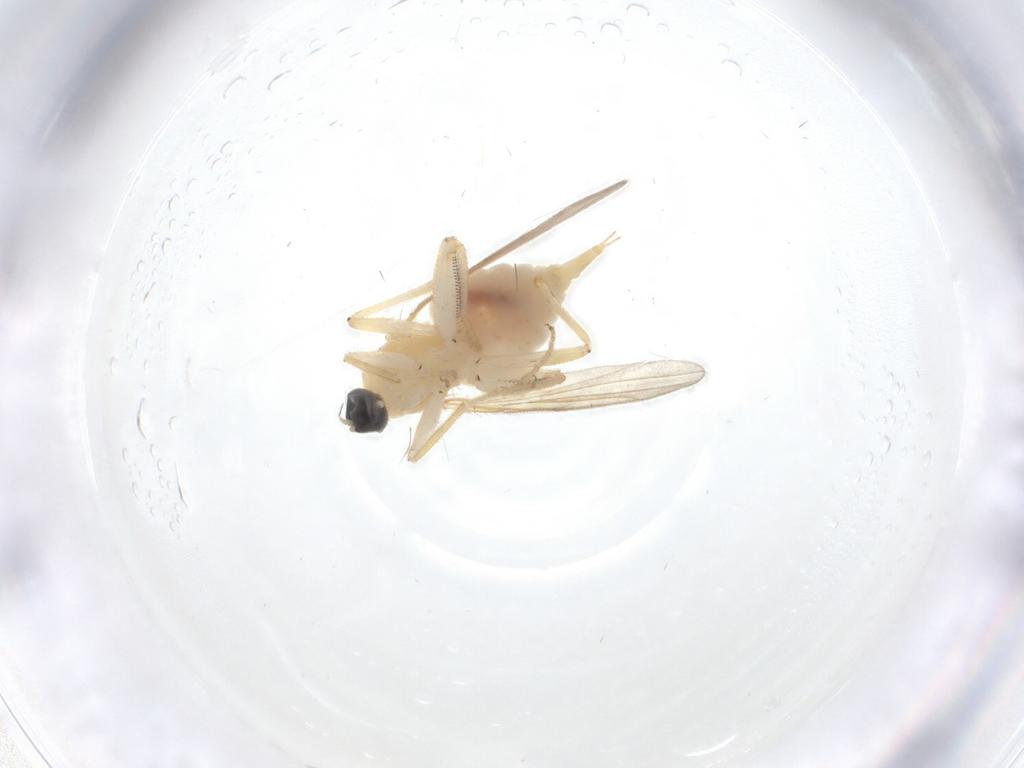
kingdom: Animalia
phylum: Arthropoda
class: Insecta
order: Diptera
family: Hybotidae
